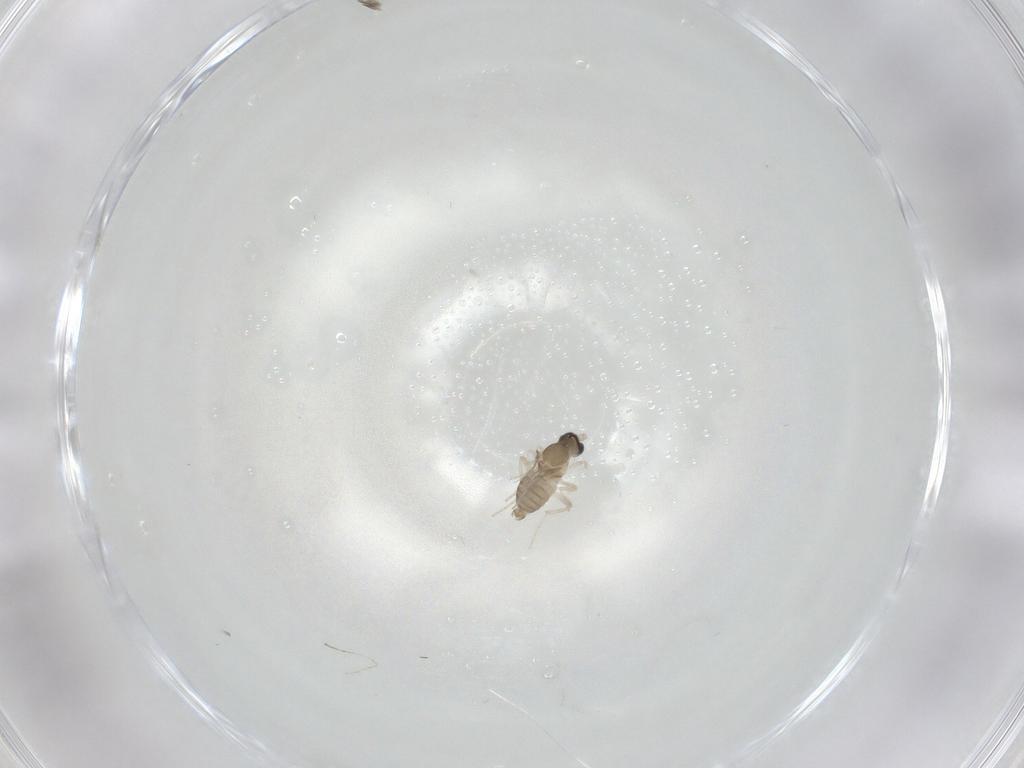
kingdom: Animalia
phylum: Arthropoda
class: Insecta
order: Diptera
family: Cecidomyiidae
